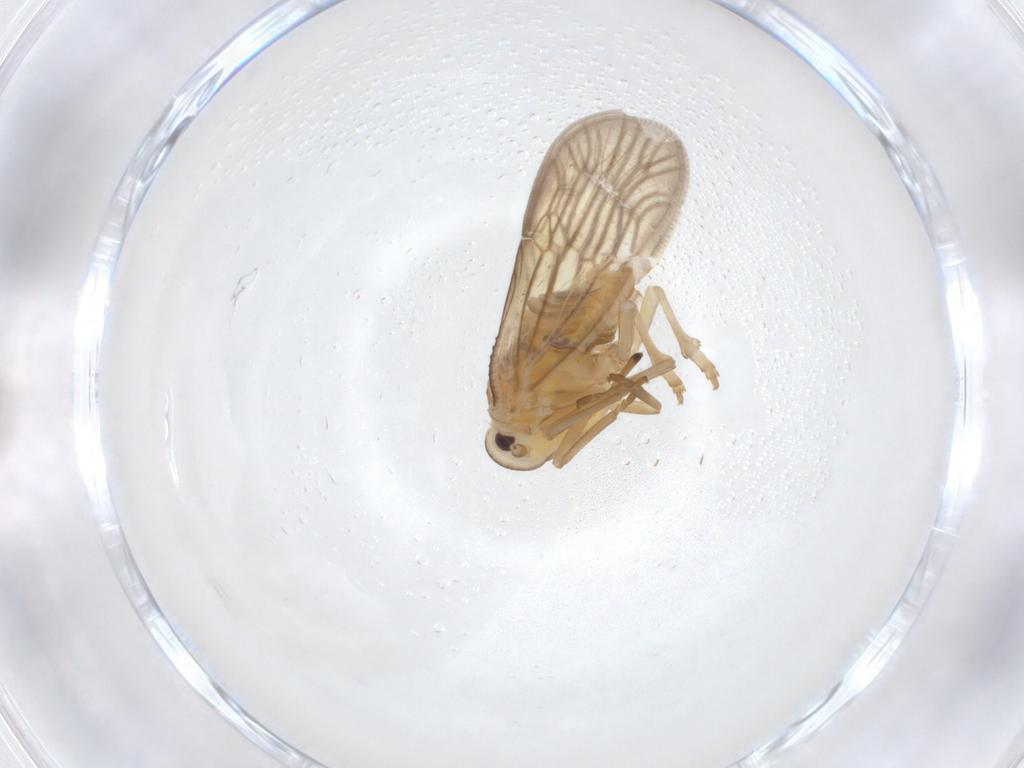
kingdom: Animalia
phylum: Arthropoda
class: Insecta
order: Hemiptera
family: Meenoplidae
